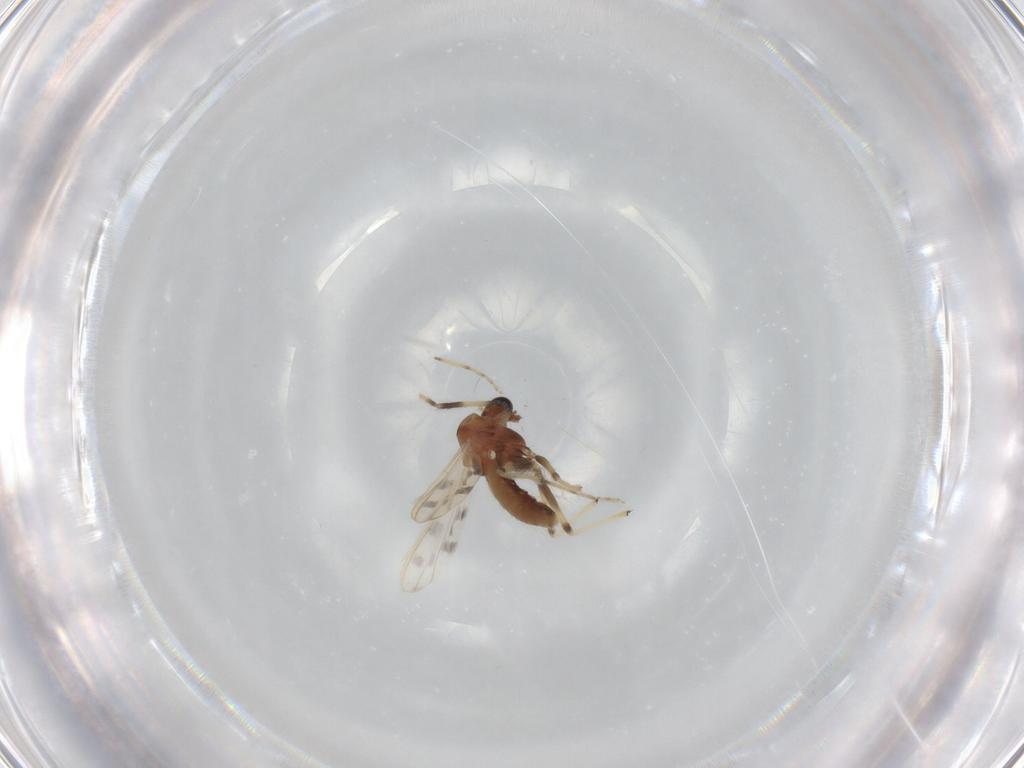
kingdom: Animalia
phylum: Arthropoda
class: Insecta
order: Diptera
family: Chironomidae
